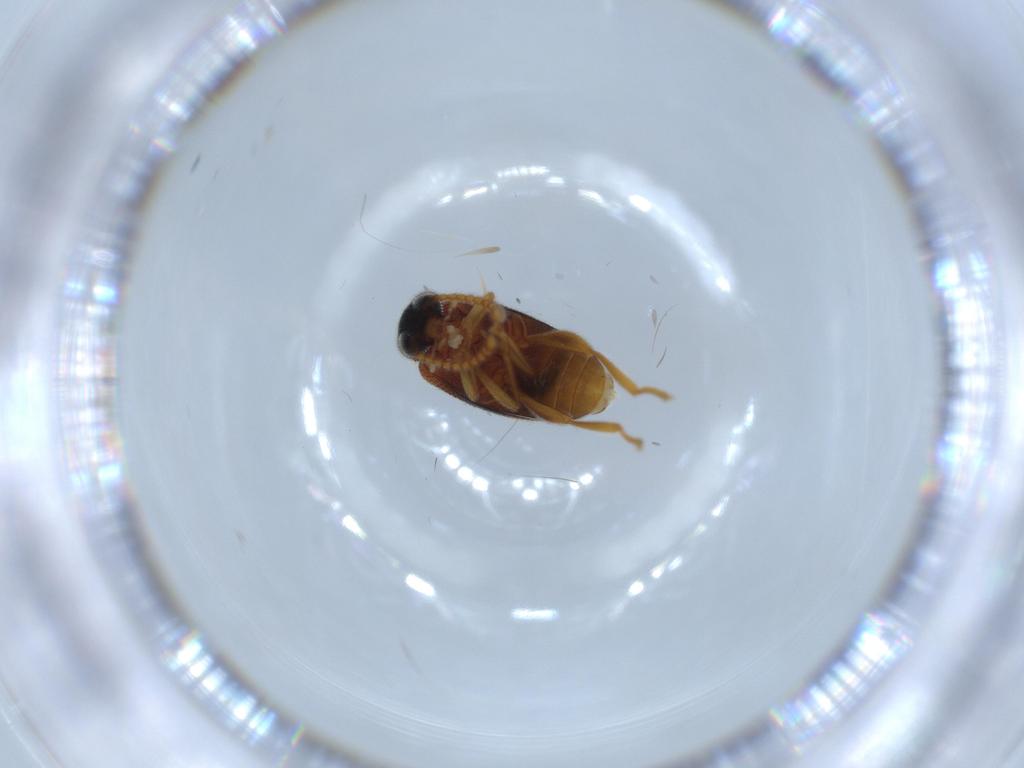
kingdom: Animalia
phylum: Arthropoda
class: Insecta
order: Coleoptera
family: Aderidae
